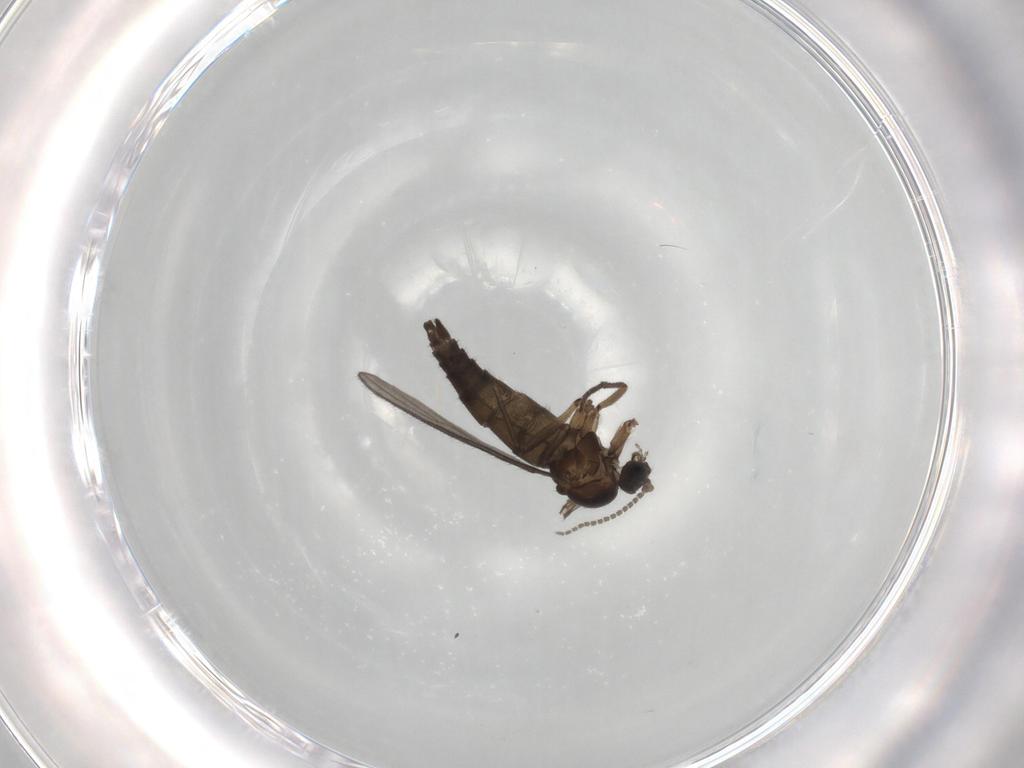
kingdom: Animalia
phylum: Arthropoda
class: Insecta
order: Diptera
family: Sciaridae
